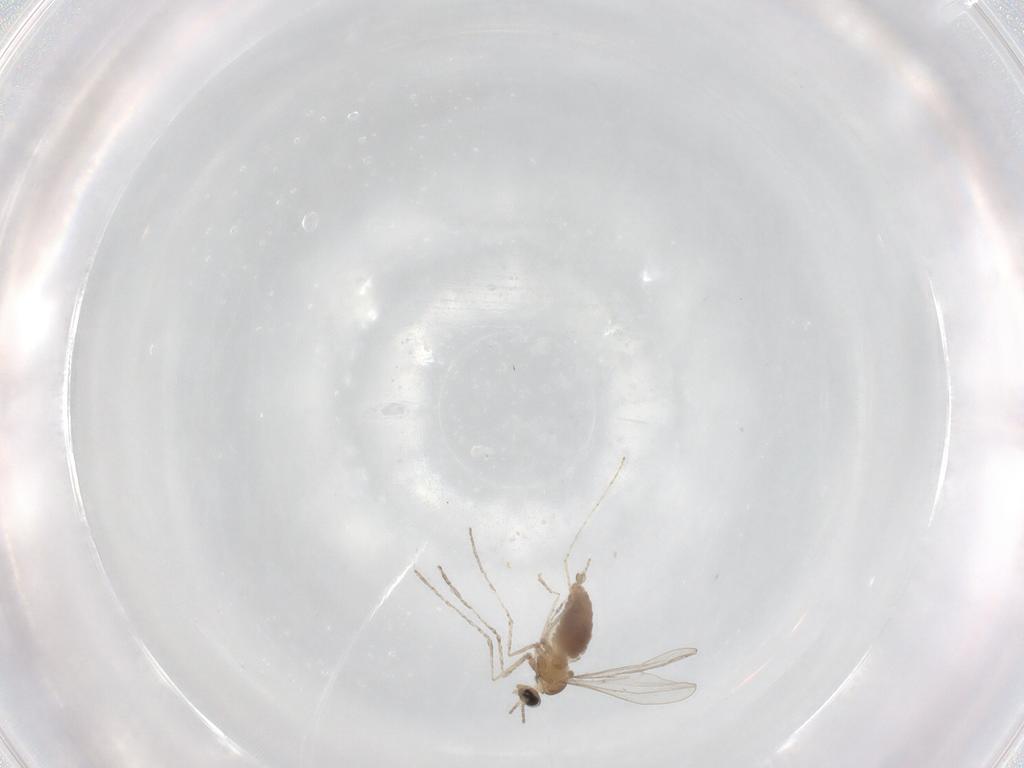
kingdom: Animalia
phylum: Arthropoda
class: Insecta
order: Diptera
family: Cecidomyiidae
